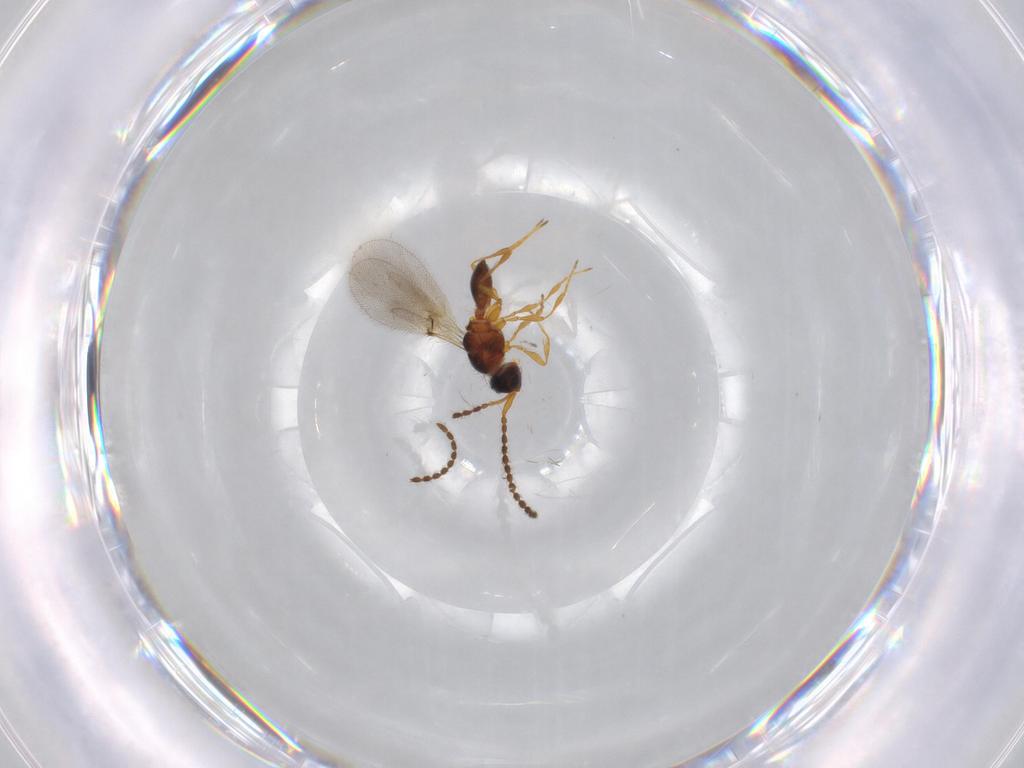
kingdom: Animalia
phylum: Arthropoda
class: Insecta
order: Hymenoptera
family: Diapriidae
